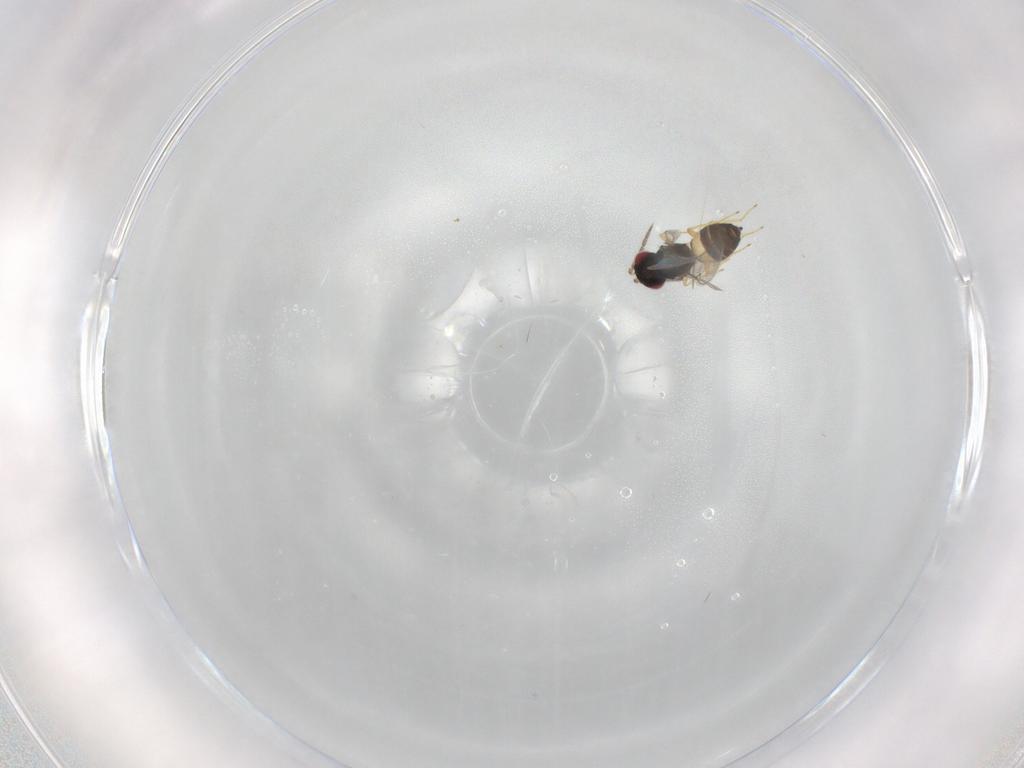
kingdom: Animalia
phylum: Arthropoda
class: Insecta
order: Hymenoptera
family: Eulophidae
